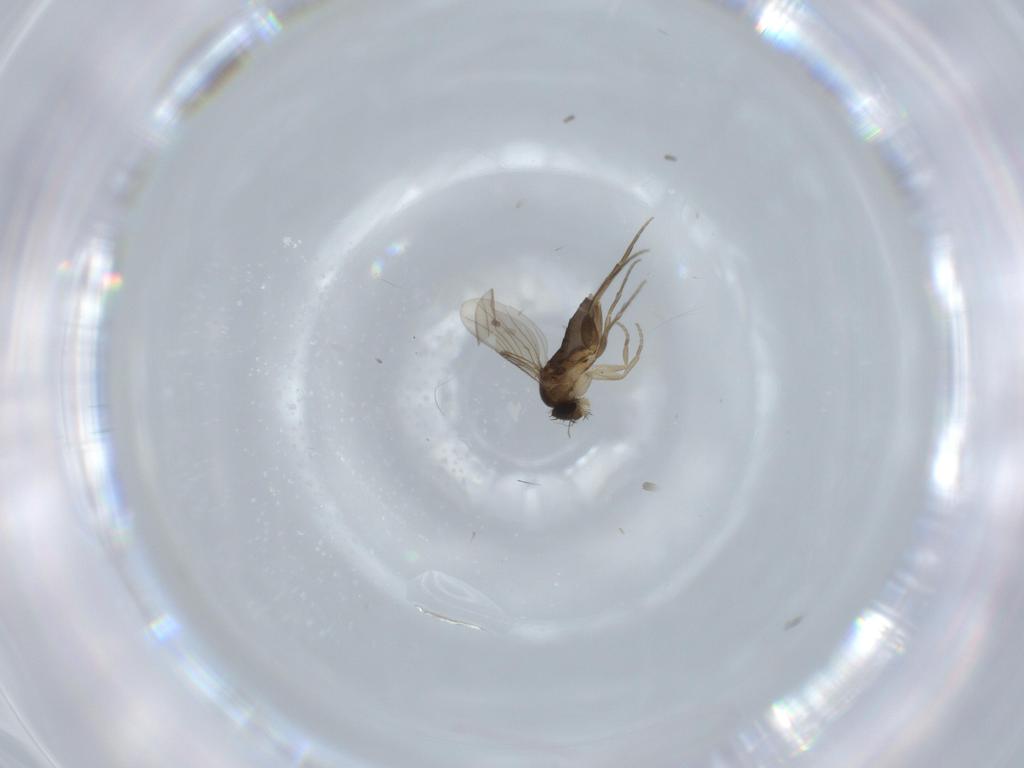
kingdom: Animalia
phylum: Arthropoda
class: Insecta
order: Diptera
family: Phoridae
